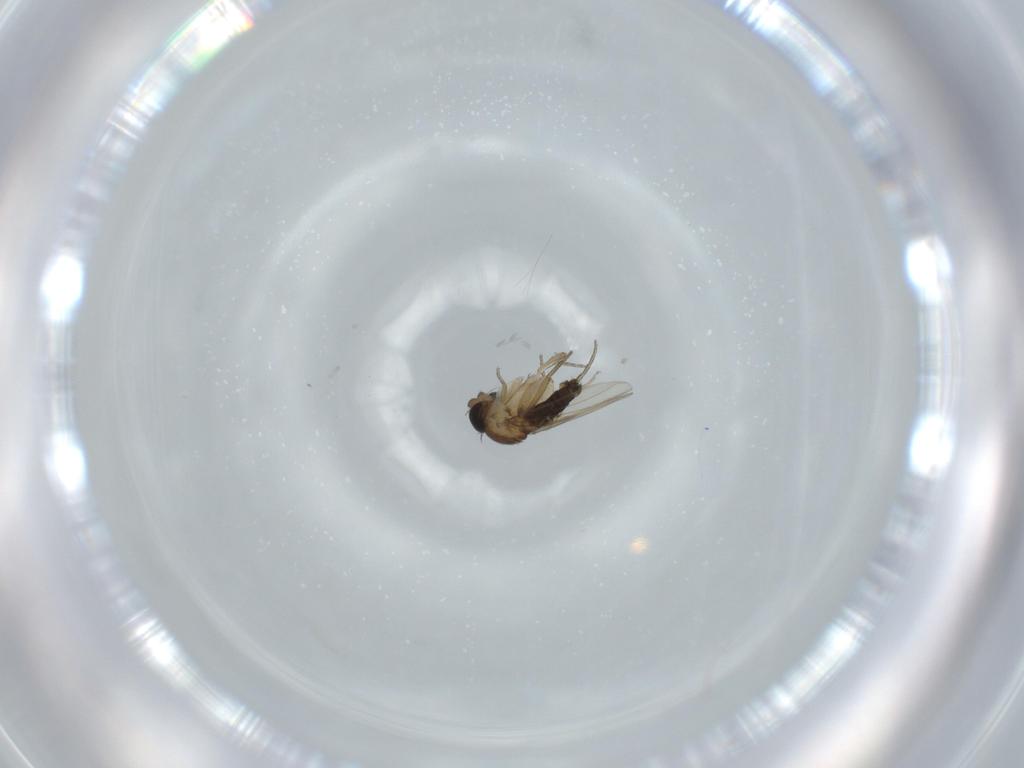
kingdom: Animalia
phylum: Arthropoda
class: Insecta
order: Diptera
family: Phoridae
